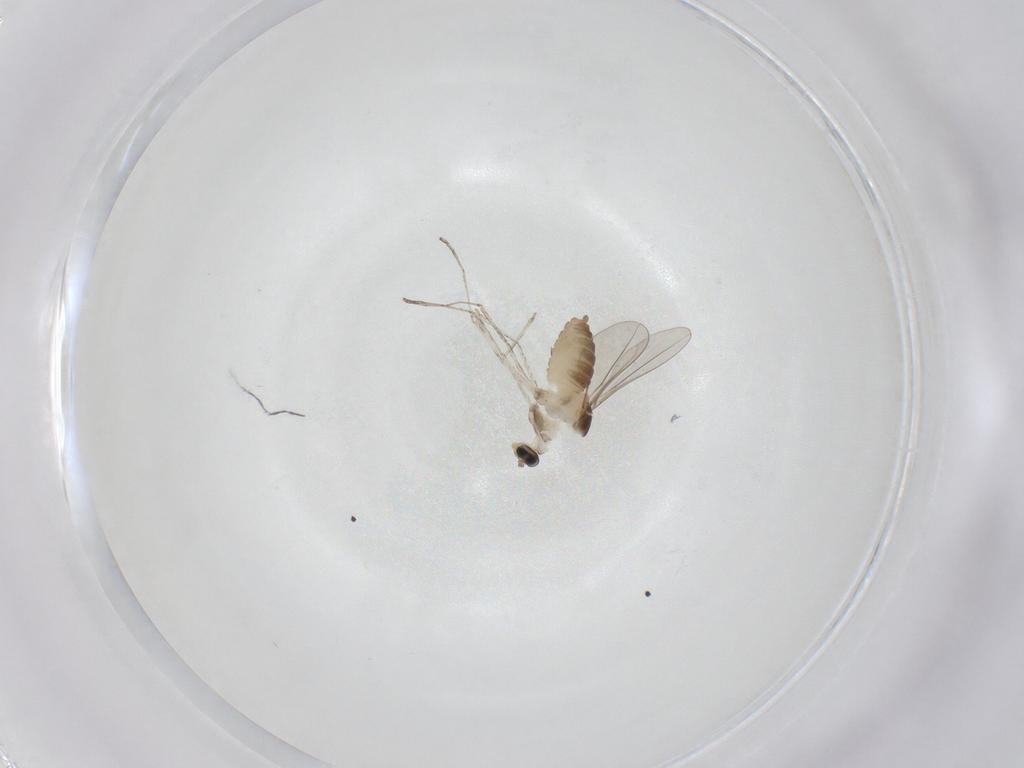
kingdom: Animalia
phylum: Arthropoda
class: Insecta
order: Diptera
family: Cecidomyiidae
